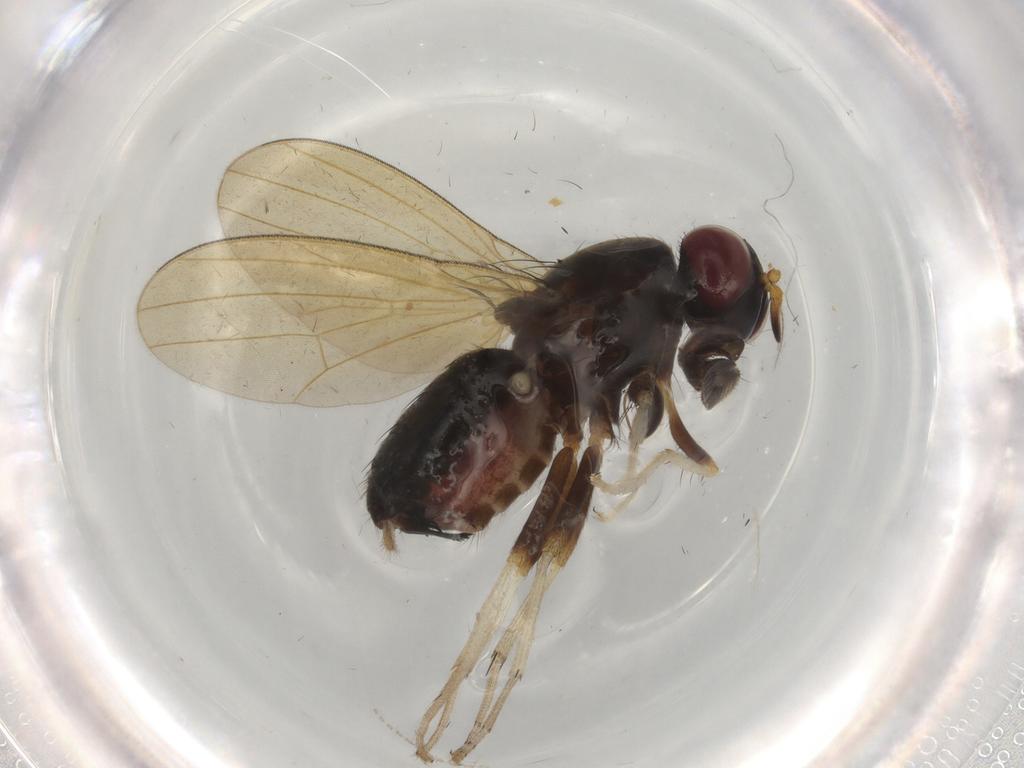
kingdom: Animalia
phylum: Arthropoda
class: Insecta
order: Diptera
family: Lauxaniidae
